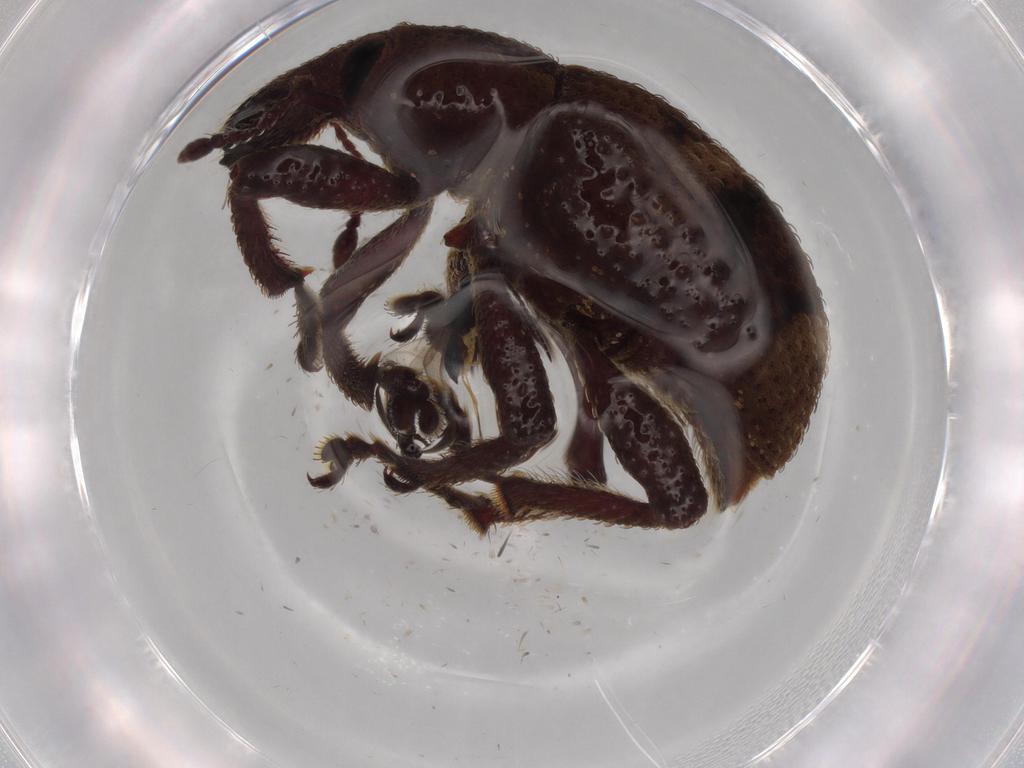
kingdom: Animalia
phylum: Arthropoda
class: Insecta
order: Coleoptera
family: Curculionidae
